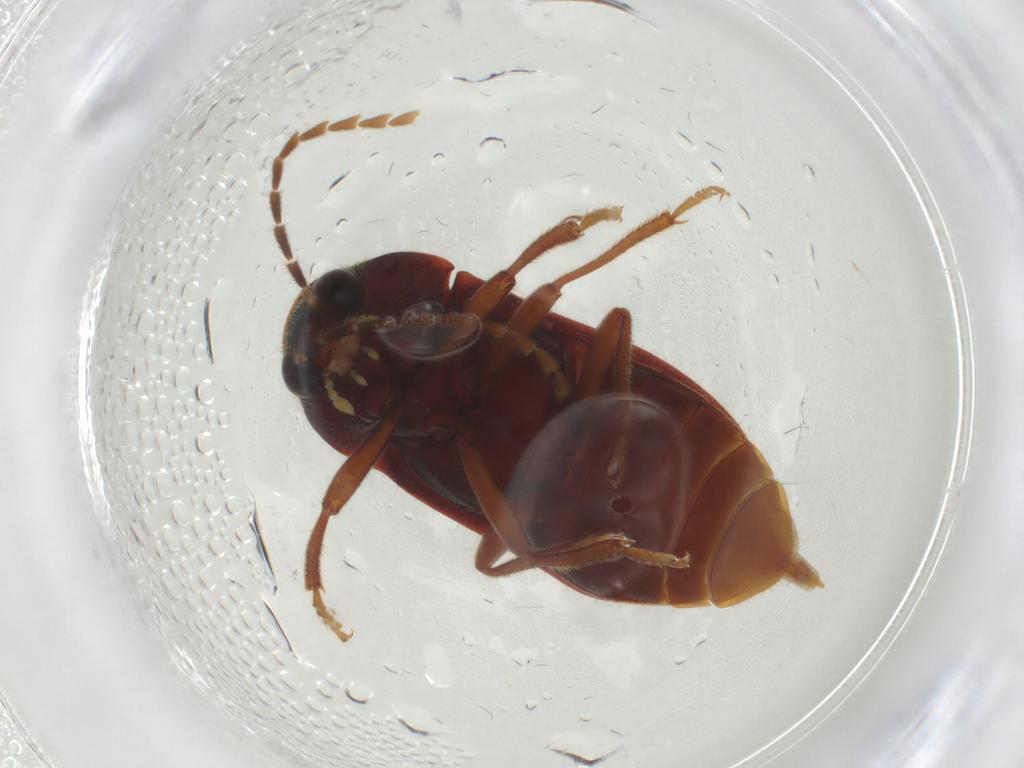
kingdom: Animalia
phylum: Arthropoda
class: Insecta
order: Coleoptera
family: Ptilodactylidae
